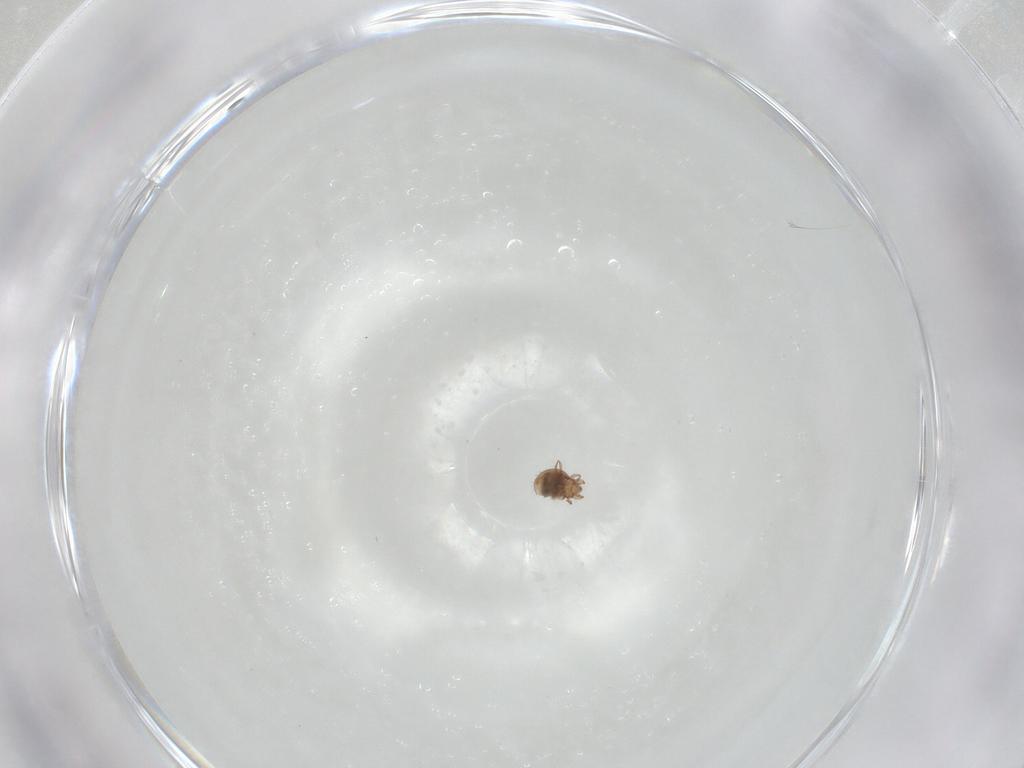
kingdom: Animalia
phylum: Arthropoda
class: Arachnida
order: Sarcoptiformes
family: Oribatulidae
